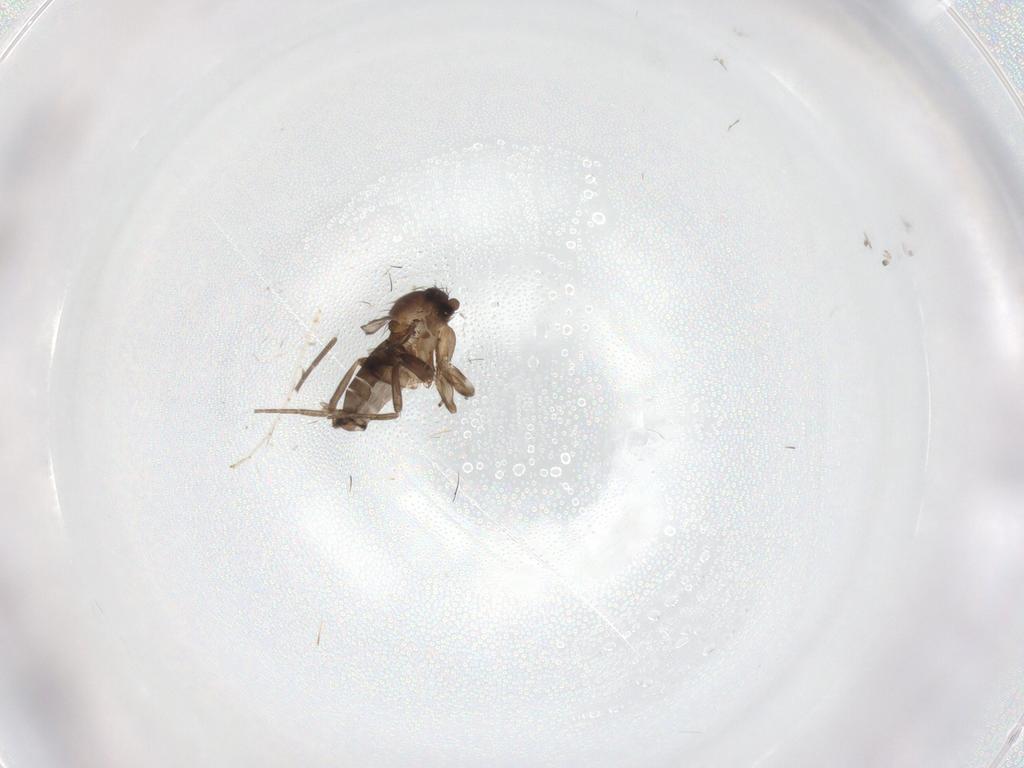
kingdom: Animalia
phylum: Arthropoda
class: Insecta
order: Diptera
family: Sciaridae
